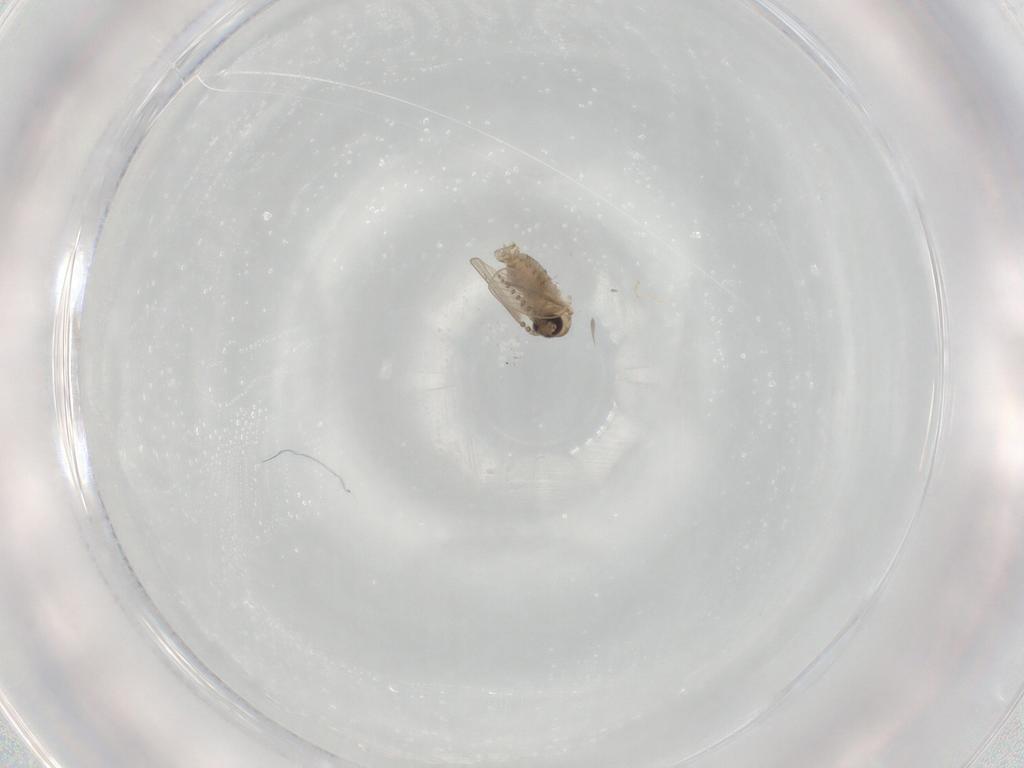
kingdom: Animalia
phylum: Arthropoda
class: Insecta
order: Diptera
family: Psychodidae
